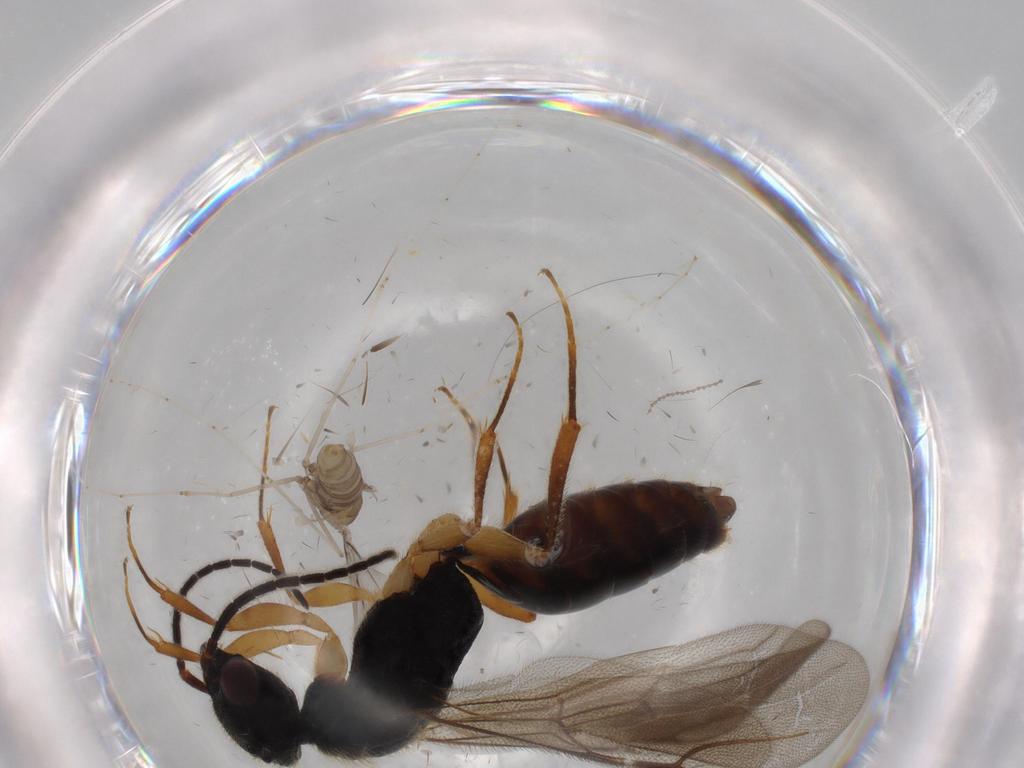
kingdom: Animalia
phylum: Arthropoda
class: Insecta
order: Diptera
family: Cecidomyiidae
